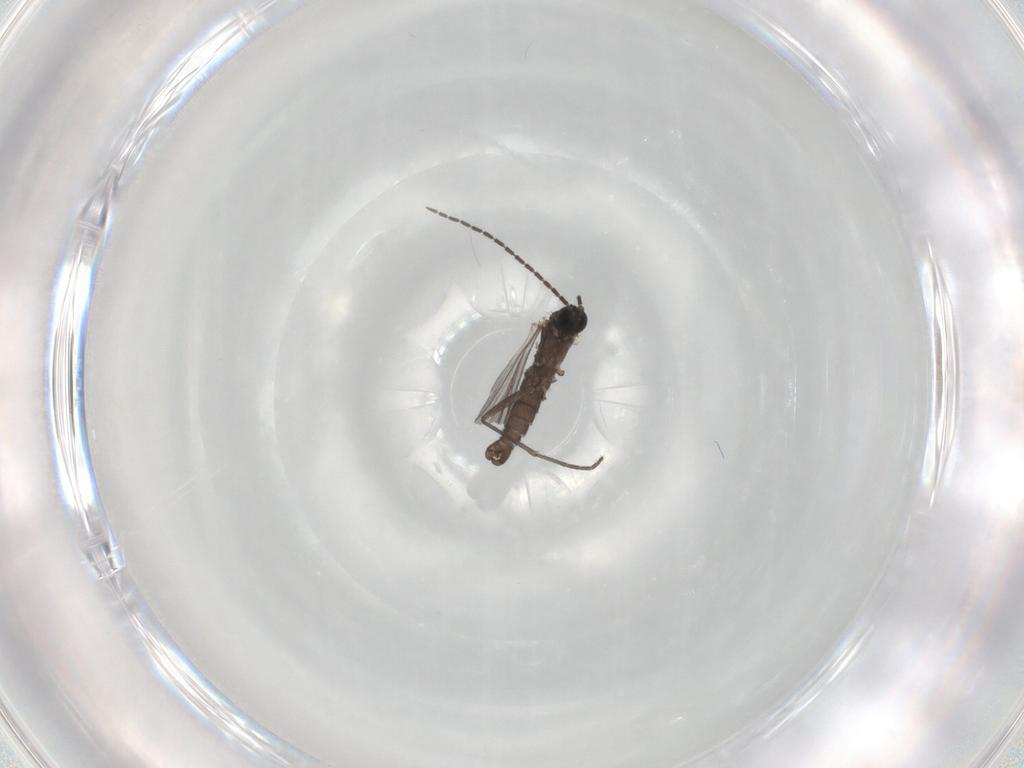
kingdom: Animalia
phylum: Arthropoda
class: Insecta
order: Diptera
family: Sciaridae
